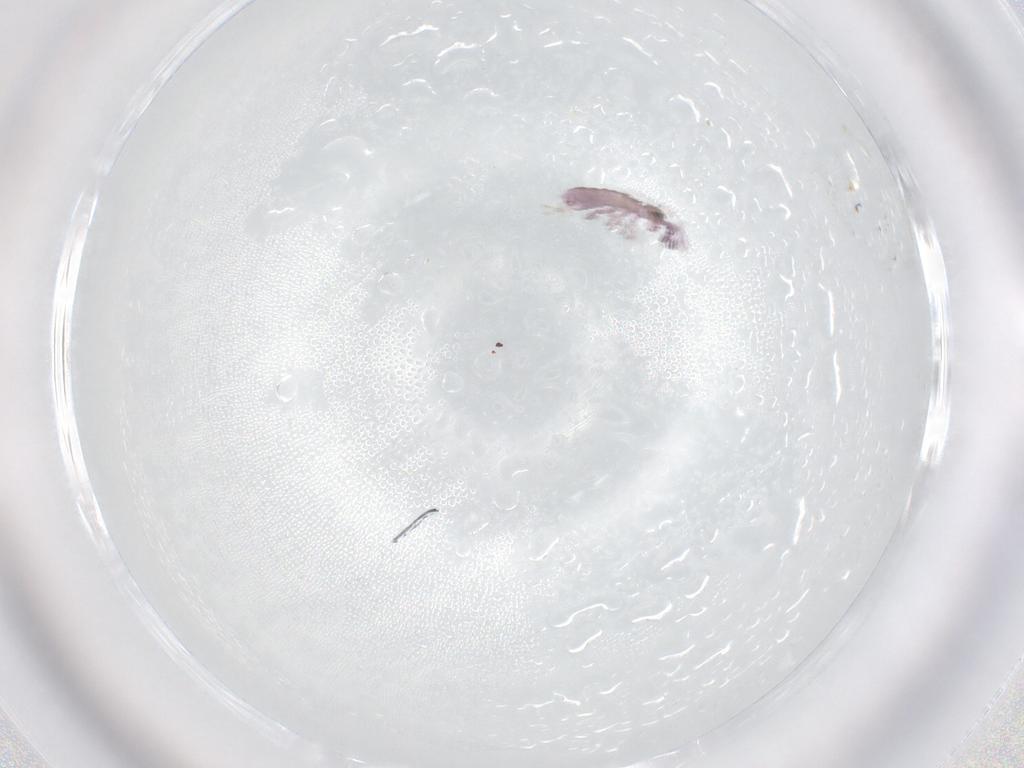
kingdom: Animalia
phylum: Arthropoda
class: Collembola
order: Entomobryomorpha
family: Isotomidae
